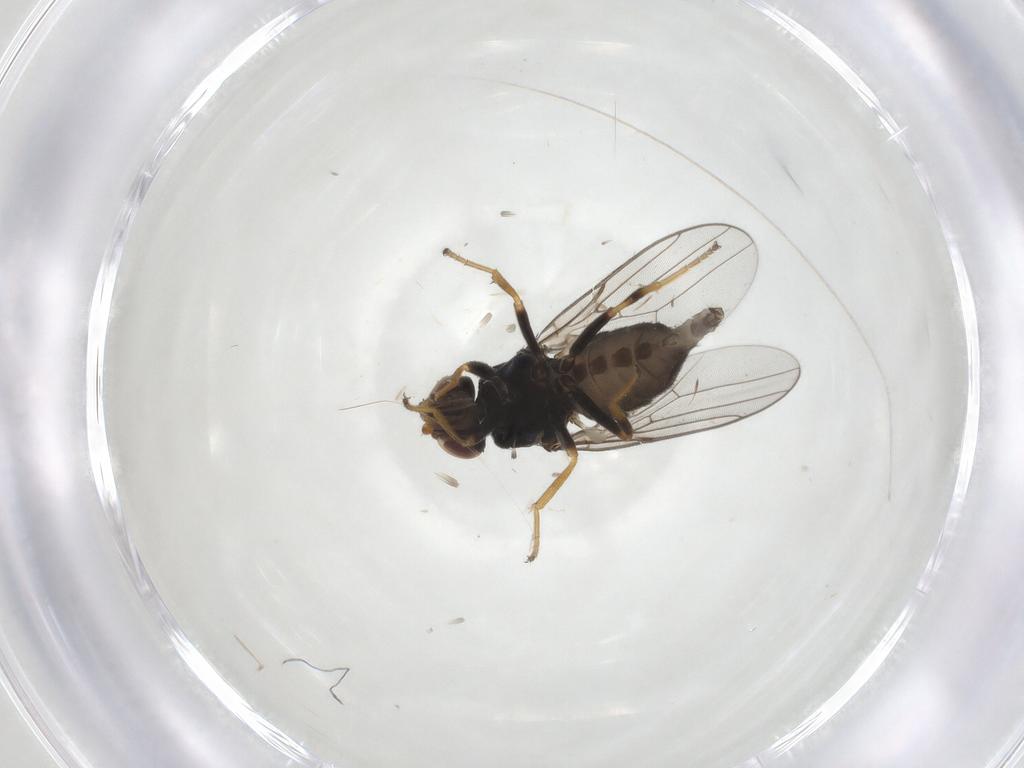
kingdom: Animalia
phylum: Arthropoda
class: Insecta
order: Diptera
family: Chloropidae
